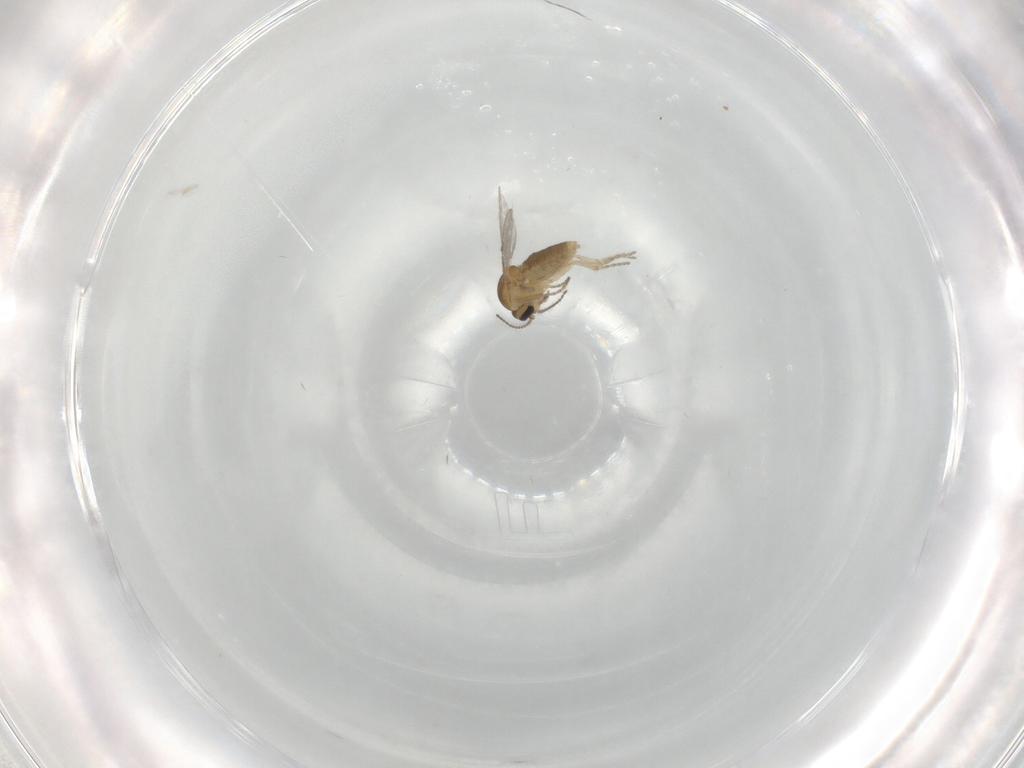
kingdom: Animalia
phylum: Arthropoda
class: Insecta
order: Diptera
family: Ceratopogonidae
